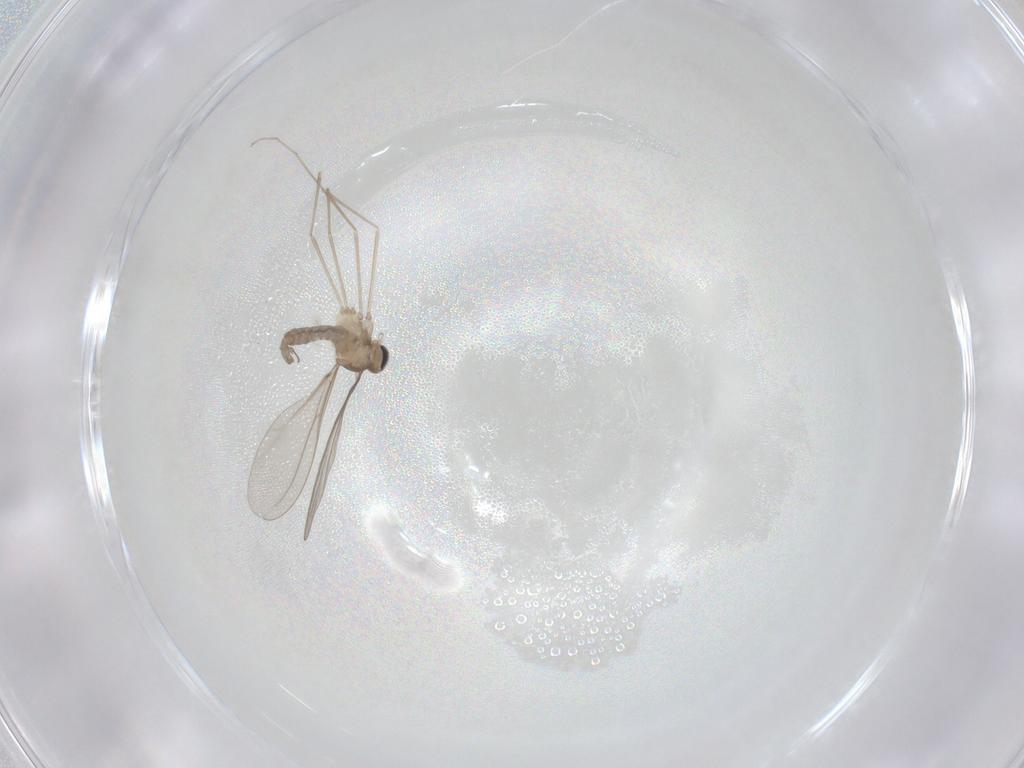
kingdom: Animalia
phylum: Arthropoda
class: Insecta
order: Diptera
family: Cecidomyiidae
